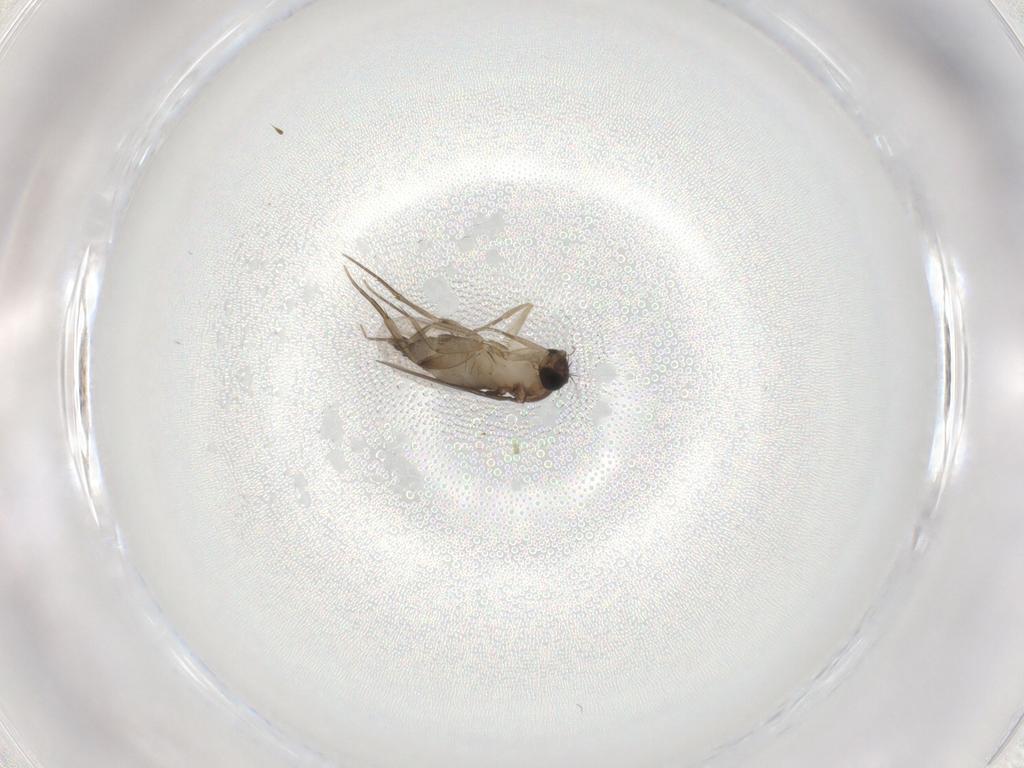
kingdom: Animalia
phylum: Arthropoda
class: Insecta
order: Diptera
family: Phoridae
